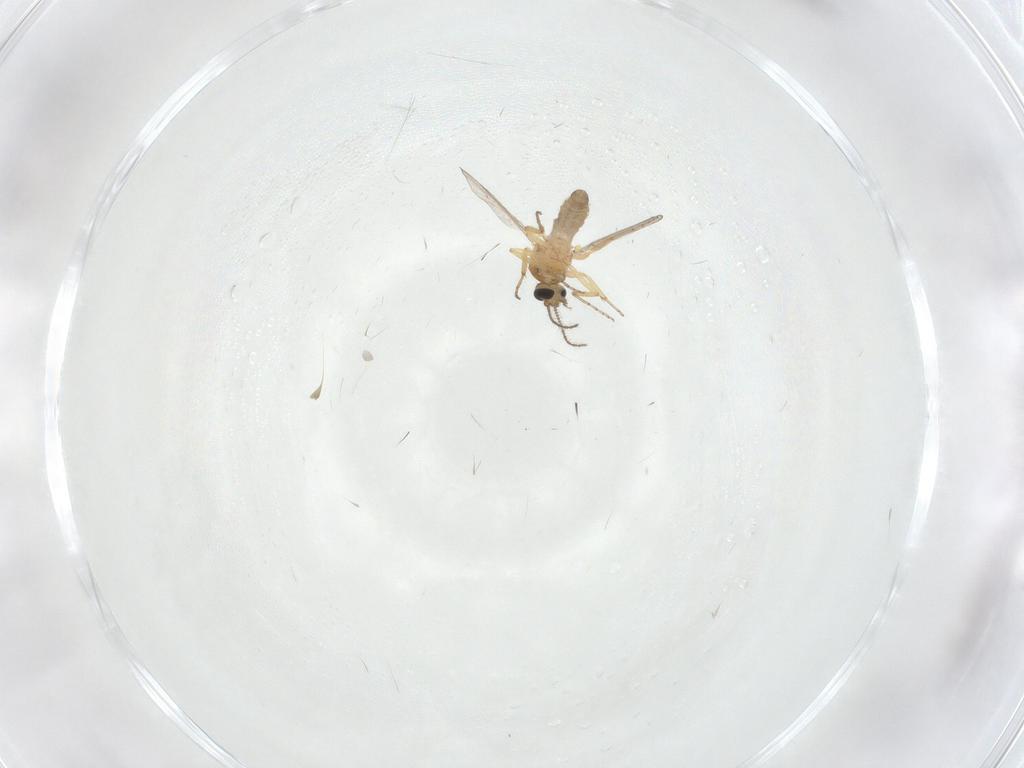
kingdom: Animalia
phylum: Arthropoda
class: Insecta
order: Diptera
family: Ceratopogonidae
